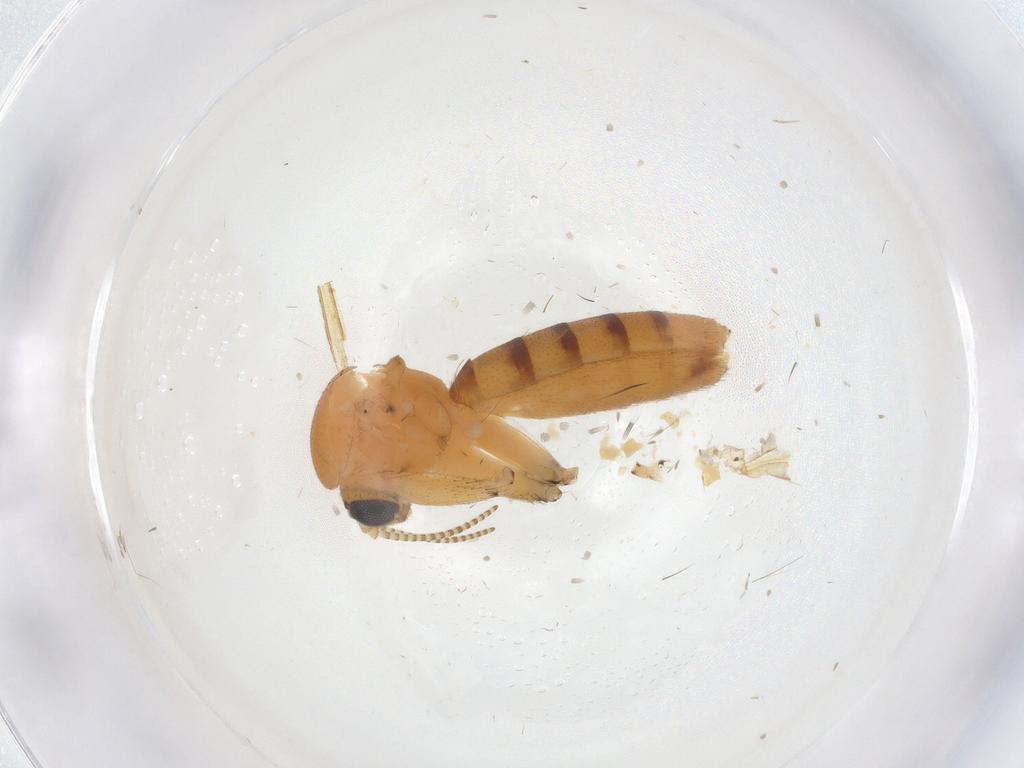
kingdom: Animalia
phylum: Arthropoda
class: Insecta
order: Diptera
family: Mycetophilidae
